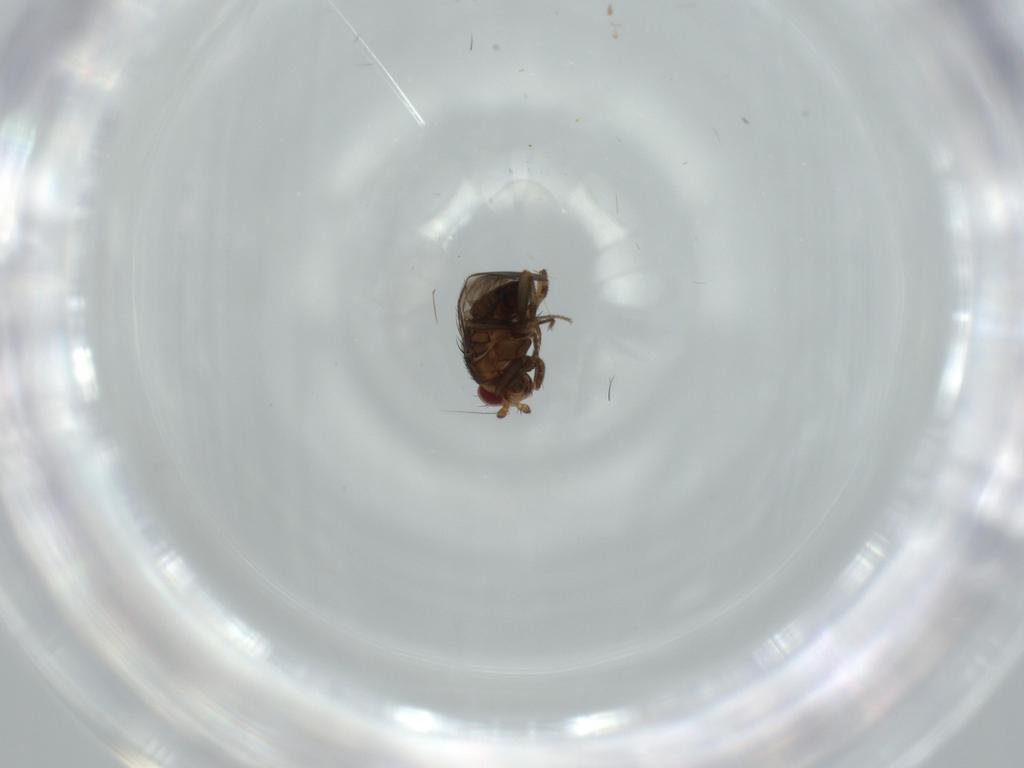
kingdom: Animalia
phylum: Arthropoda
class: Insecta
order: Diptera
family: Sphaeroceridae
